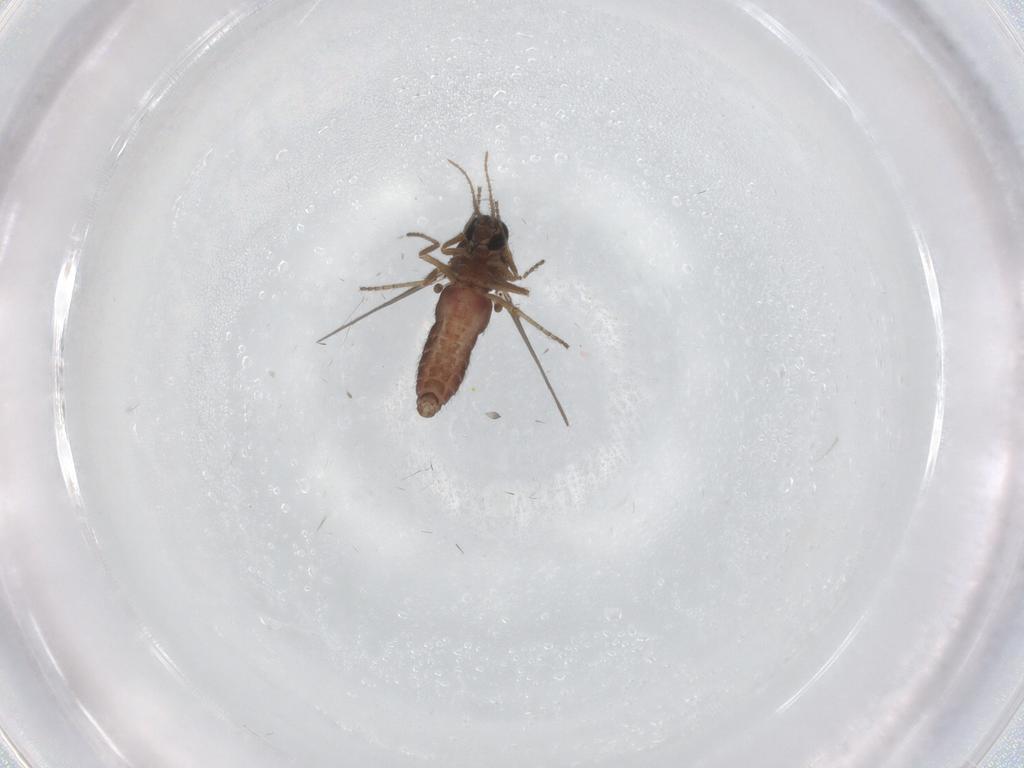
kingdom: Animalia
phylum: Arthropoda
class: Insecta
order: Diptera
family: Ceratopogonidae
